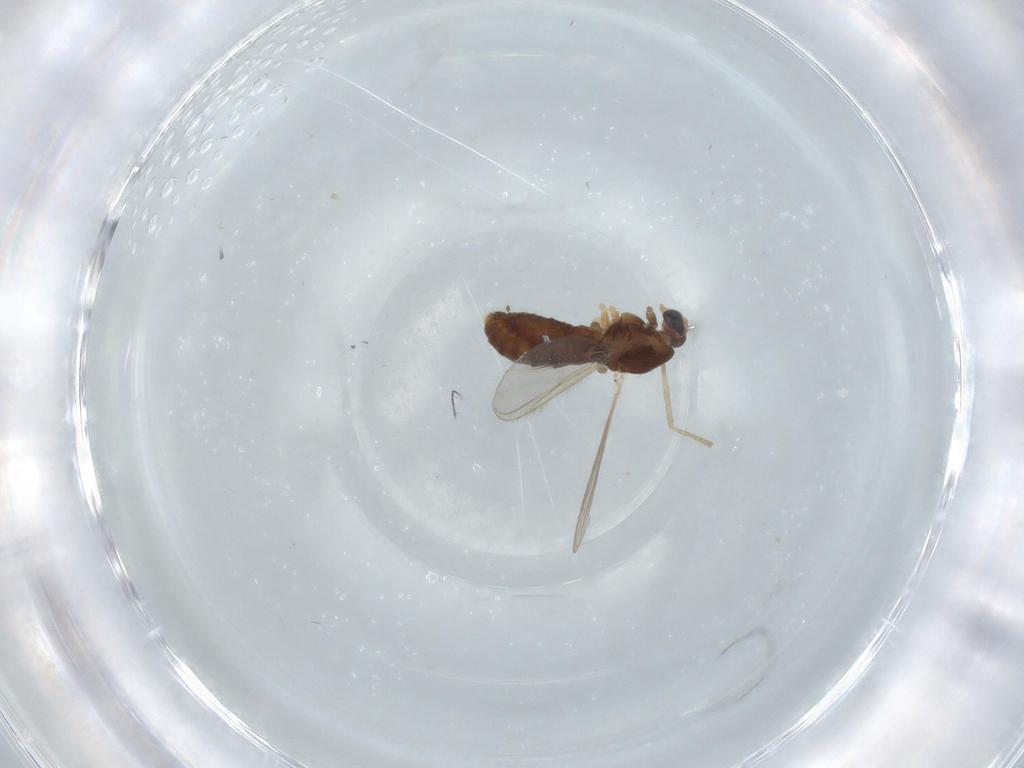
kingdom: Animalia
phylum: Arthropoda
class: Insecta
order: Diptera
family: Chironomidae
